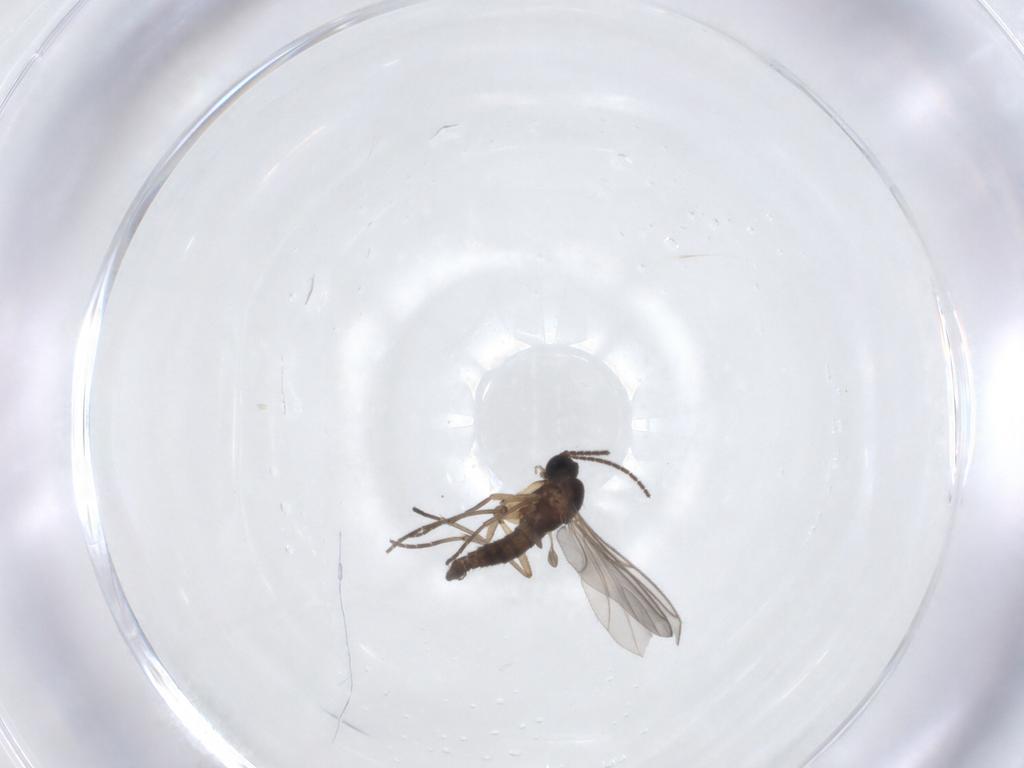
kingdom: Animalia
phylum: Arthropoda
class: Insecta
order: Diptera
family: Sciaridae
